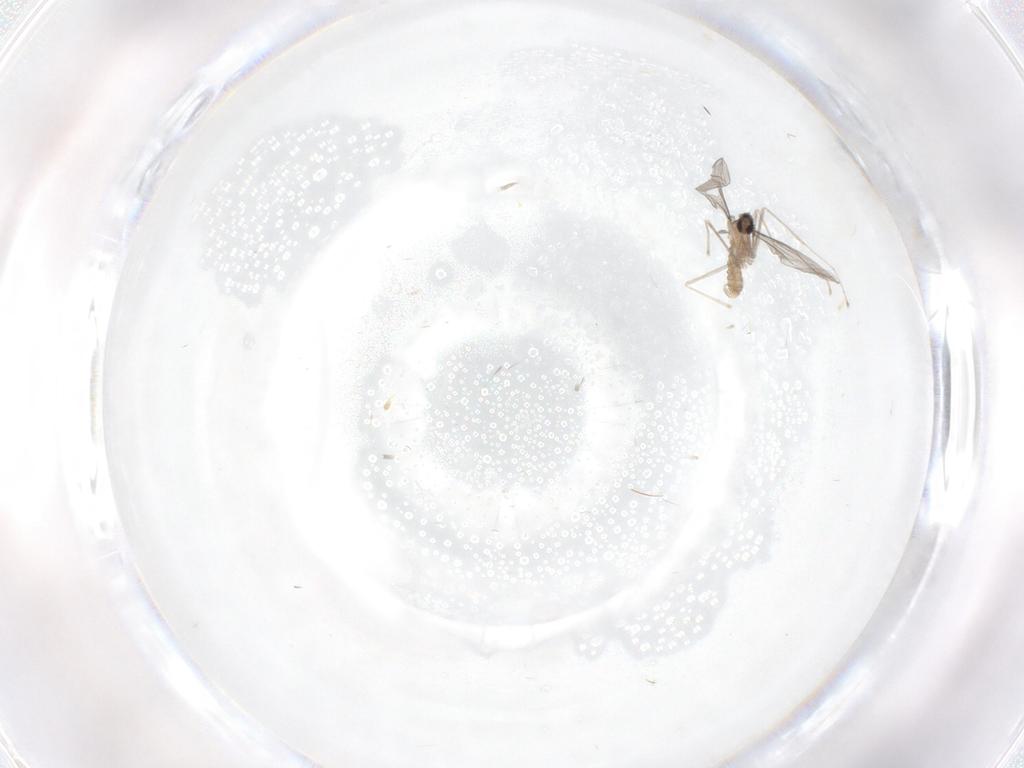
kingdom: Animalia
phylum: Arthropoda
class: Insecta
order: Diptera
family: Cecidomyiidae
